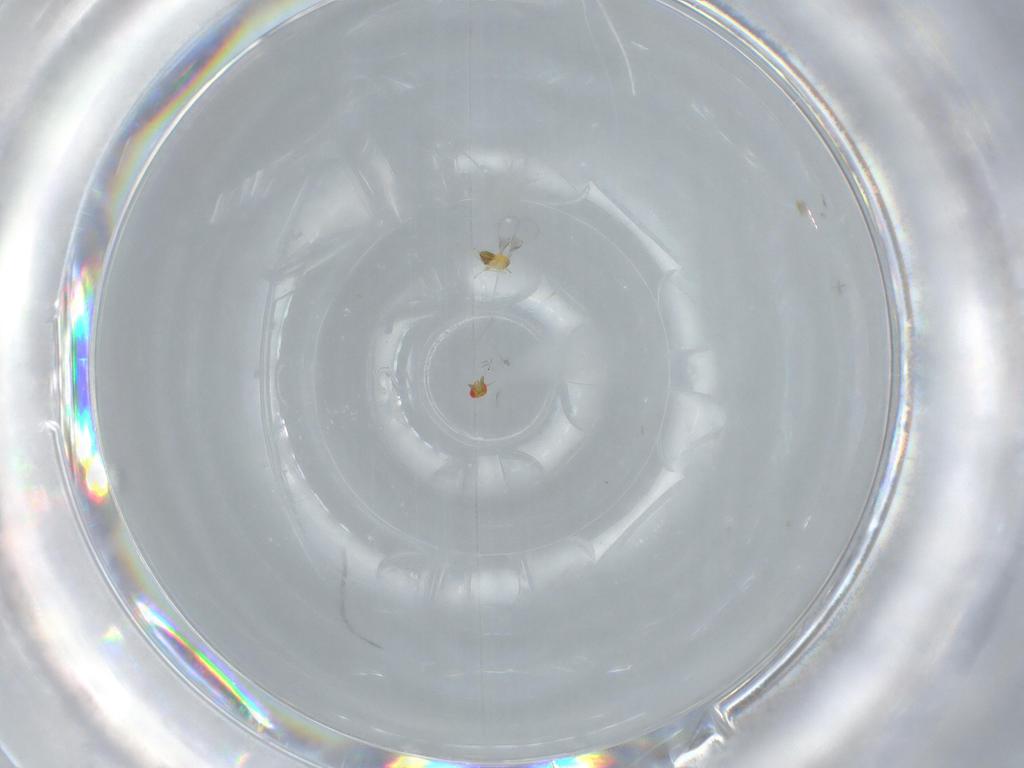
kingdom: Animalia
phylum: Arthropoda
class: Insecta
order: Hymenoptera
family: Trichogrammatidae
